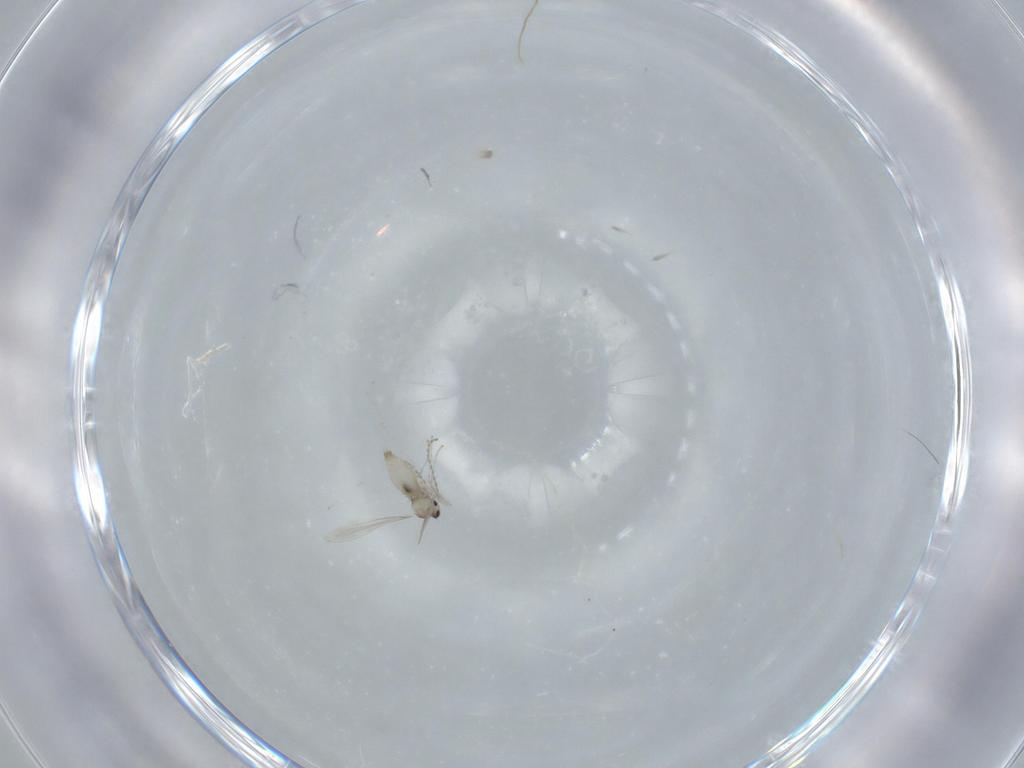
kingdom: Animalia
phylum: Arthropoda
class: Insecta
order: Diptera
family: Cecidomyiidae
